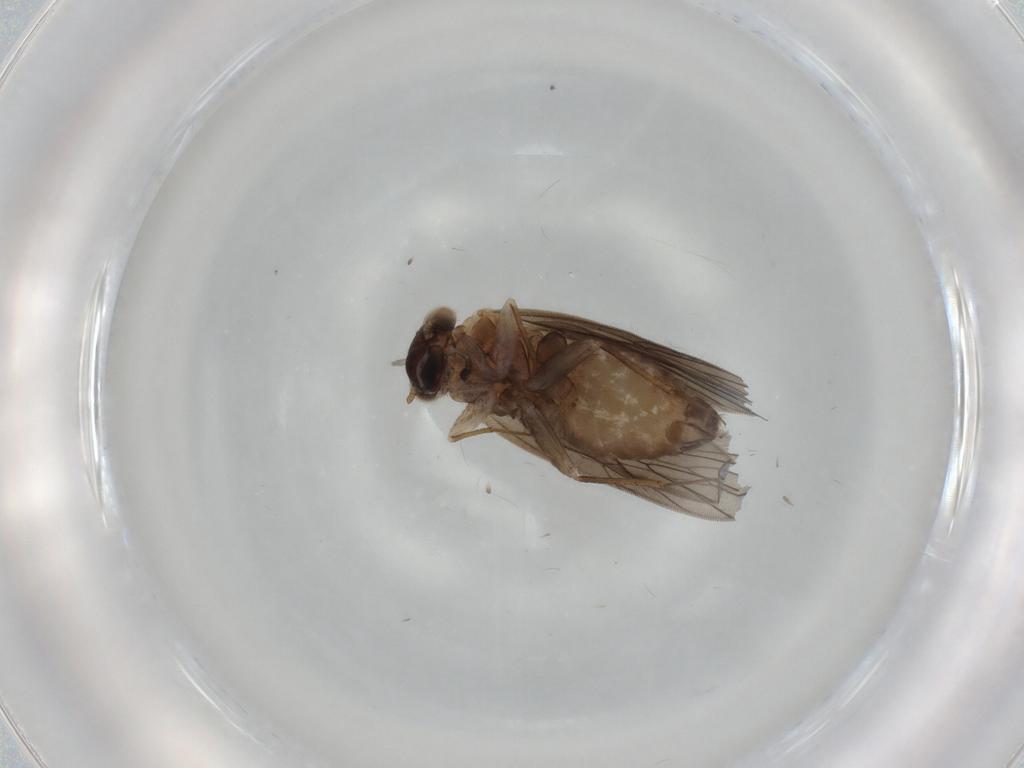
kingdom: Animalia
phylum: Arthropoda
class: Insecta
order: Psocodea
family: Lepidopsocidae
